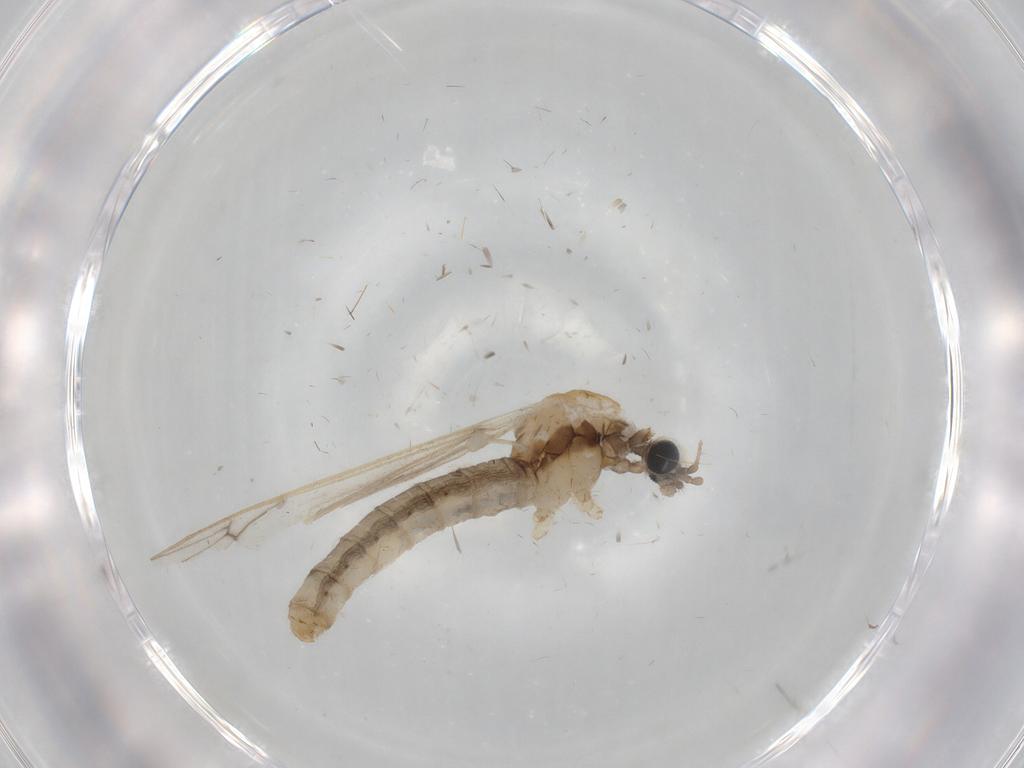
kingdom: Animalia
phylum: Arthropoda
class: Insecta
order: Diptera
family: Chironomidae
